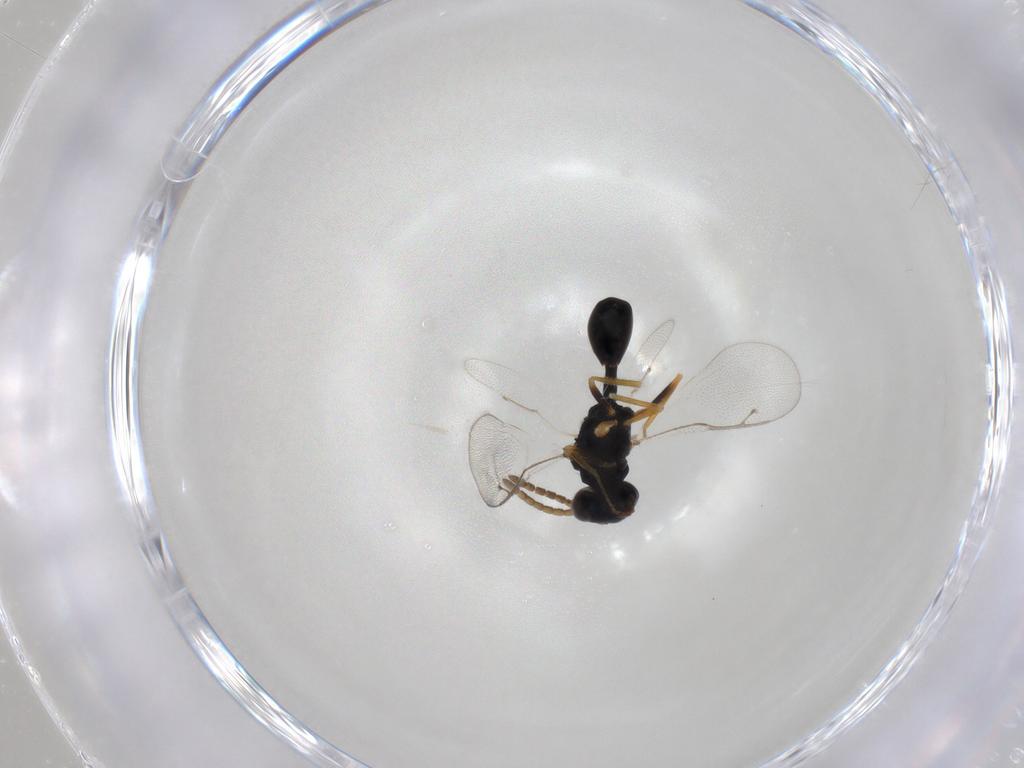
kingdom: Animalia
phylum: Arthropoda
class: Insecta
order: Hymenoptera
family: Pteromalidae
